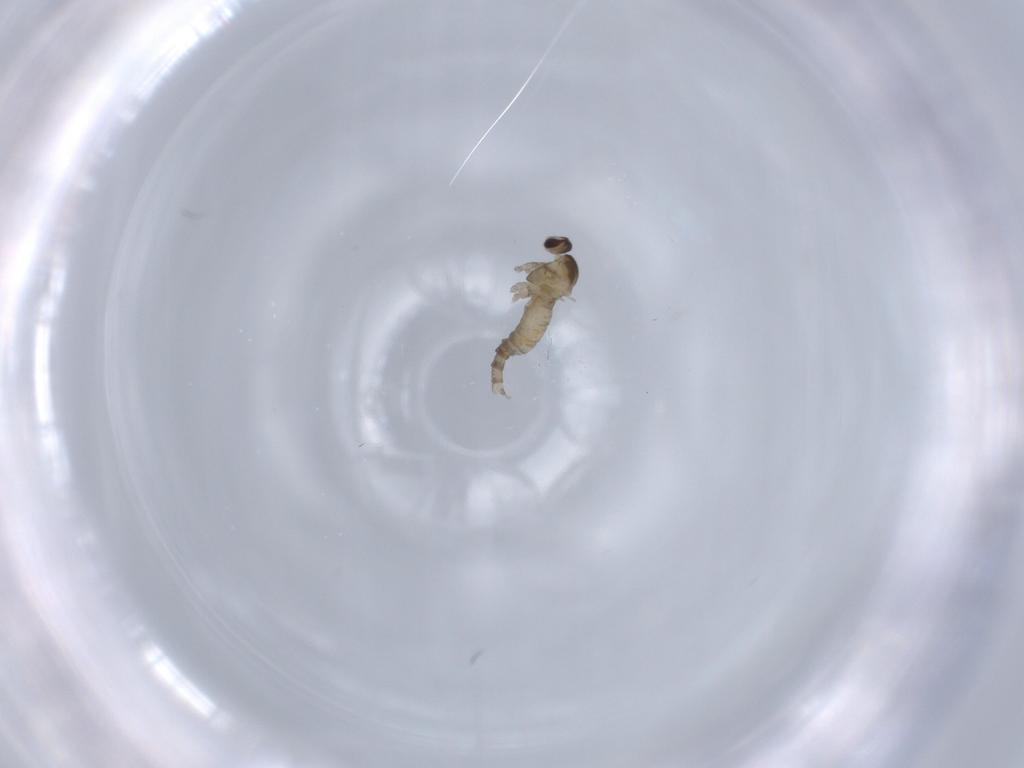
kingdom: Animalia
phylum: Arthropoda
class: Insecta
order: Diptera
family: Cecidomyiidae
